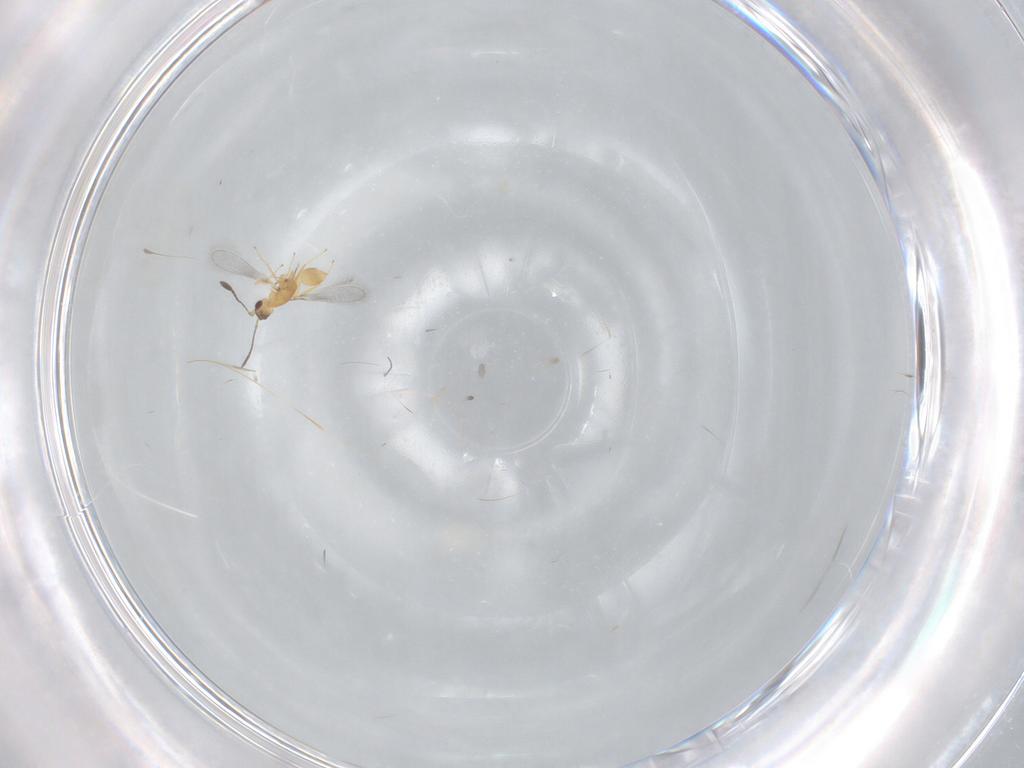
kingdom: Animalia
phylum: Arthropoda
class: Insecta
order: Hymenoptera
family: Mymaridae
